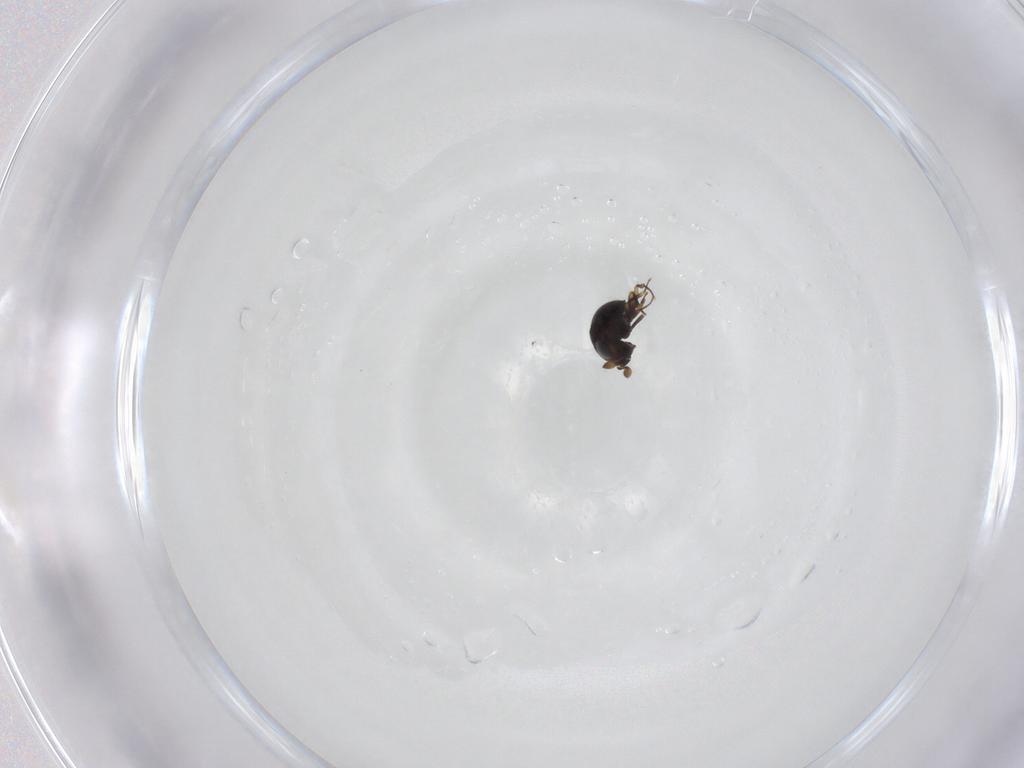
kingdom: Animalia
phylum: Arthropoda
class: Insecta
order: Hymenoptera
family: Scelionidae
